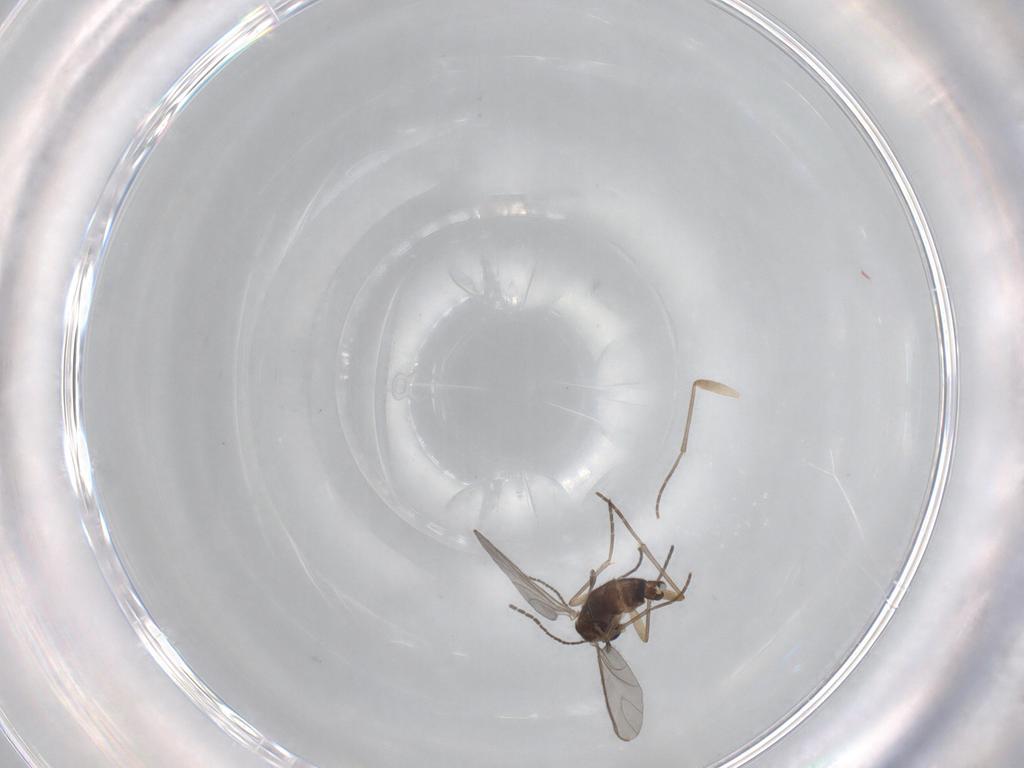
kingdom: Animalia
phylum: Arthropoda
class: Insecta
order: Diptera
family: Sciaridae
